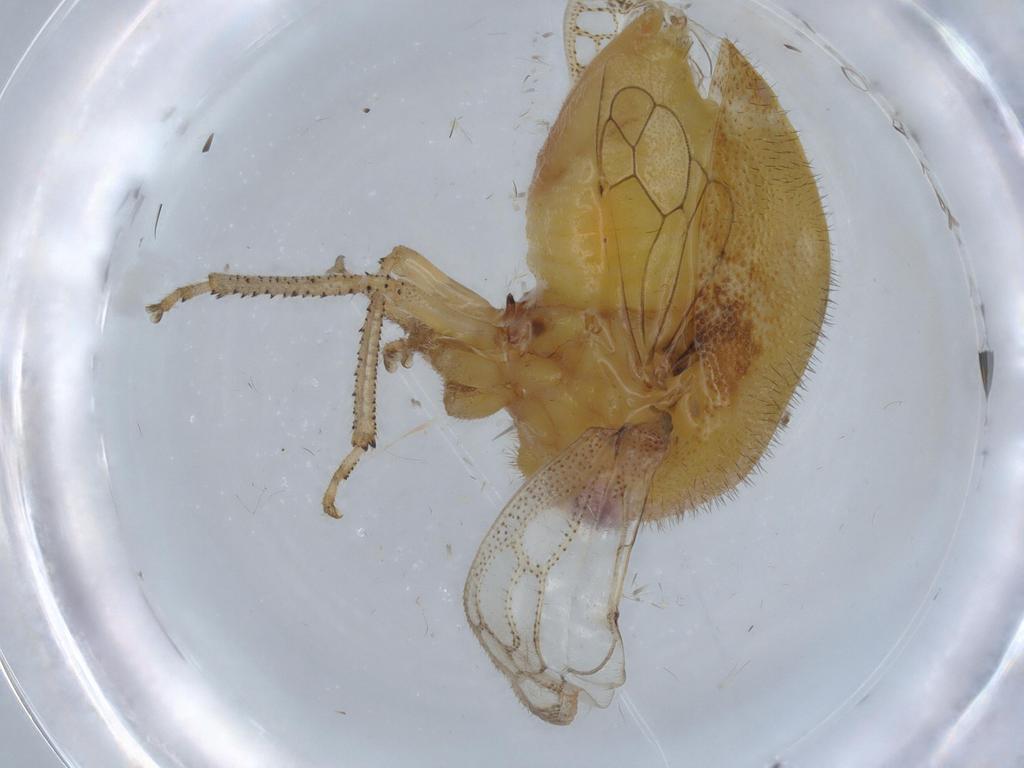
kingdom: Animalia
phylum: Arthropoda
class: Insecta
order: Hemiptera
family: Membracidae
